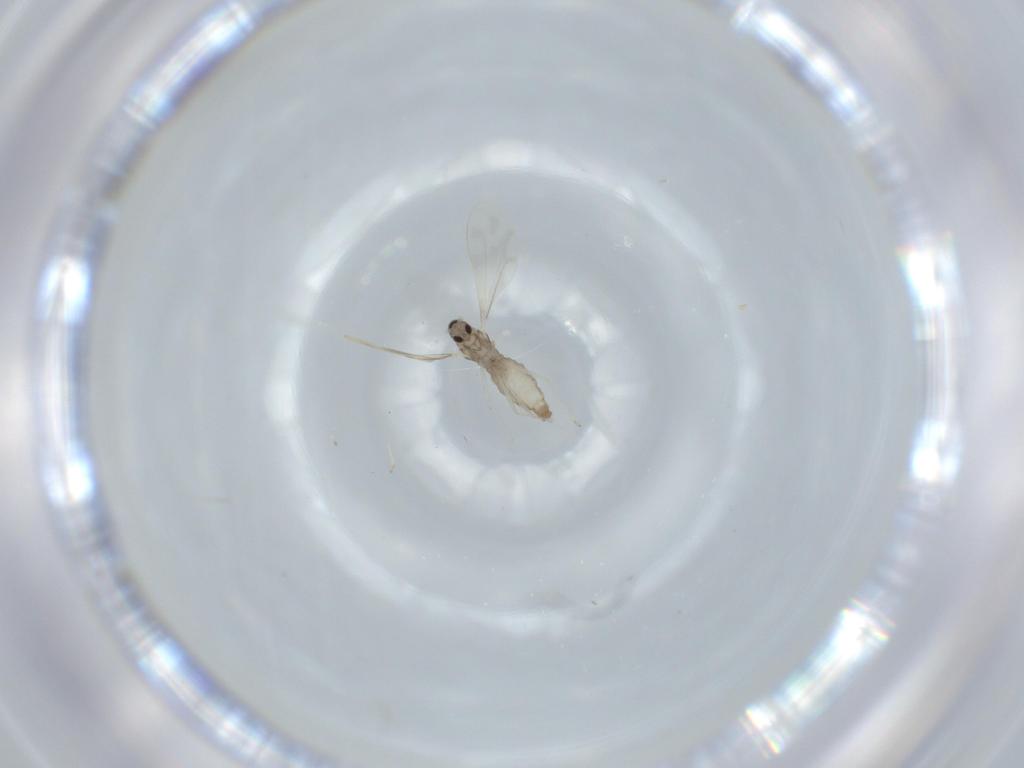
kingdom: Animalia
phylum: Arthropoda
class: Insecta
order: Diptera
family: Cecidomyiidae
